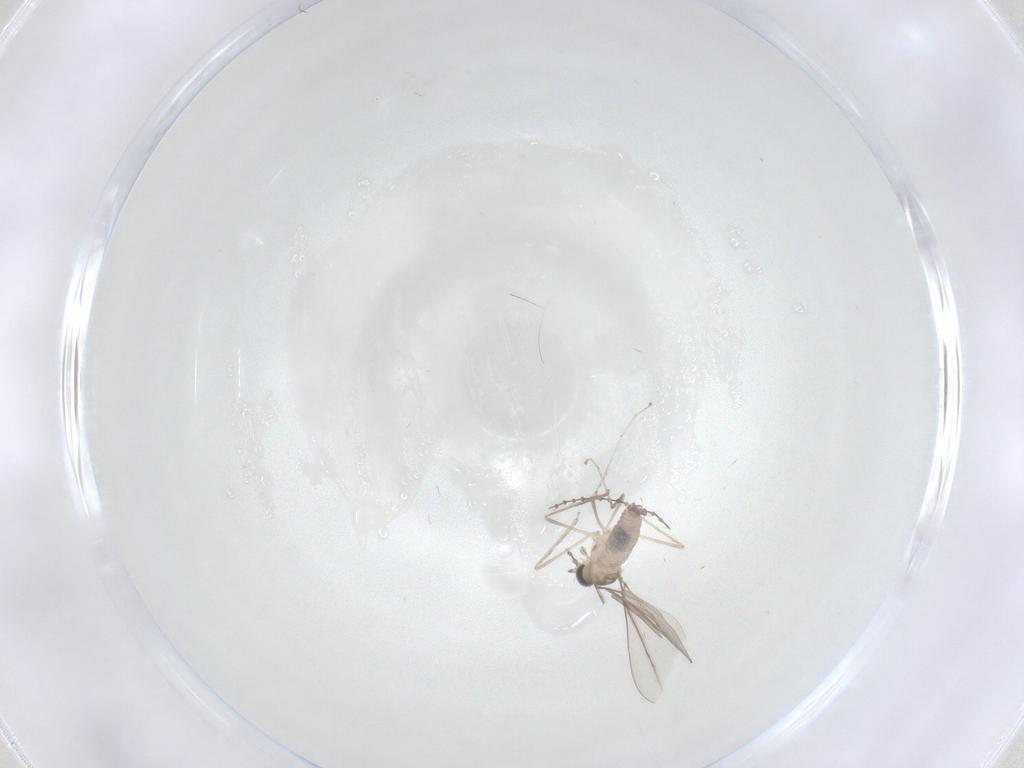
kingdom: Animalia
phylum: Arthropoda
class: Insecta
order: Diptera
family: Cecidomyiidae
